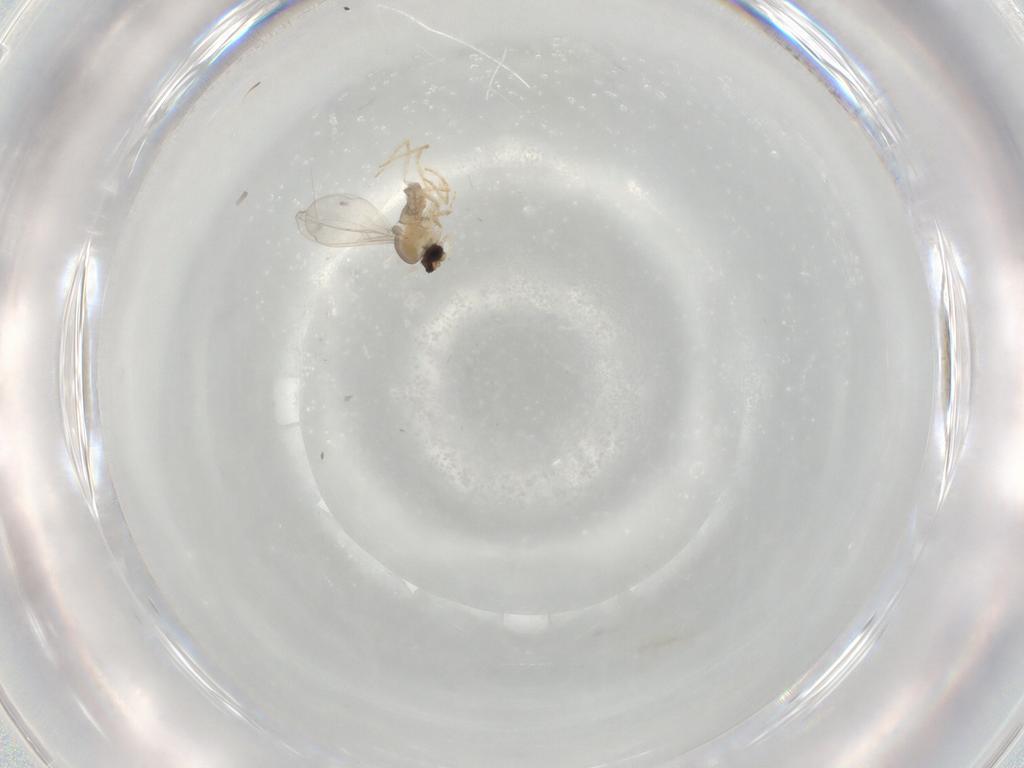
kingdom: Animalia
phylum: Arthropoda
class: Insecta
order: Diptera
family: Cecidomyiidae
